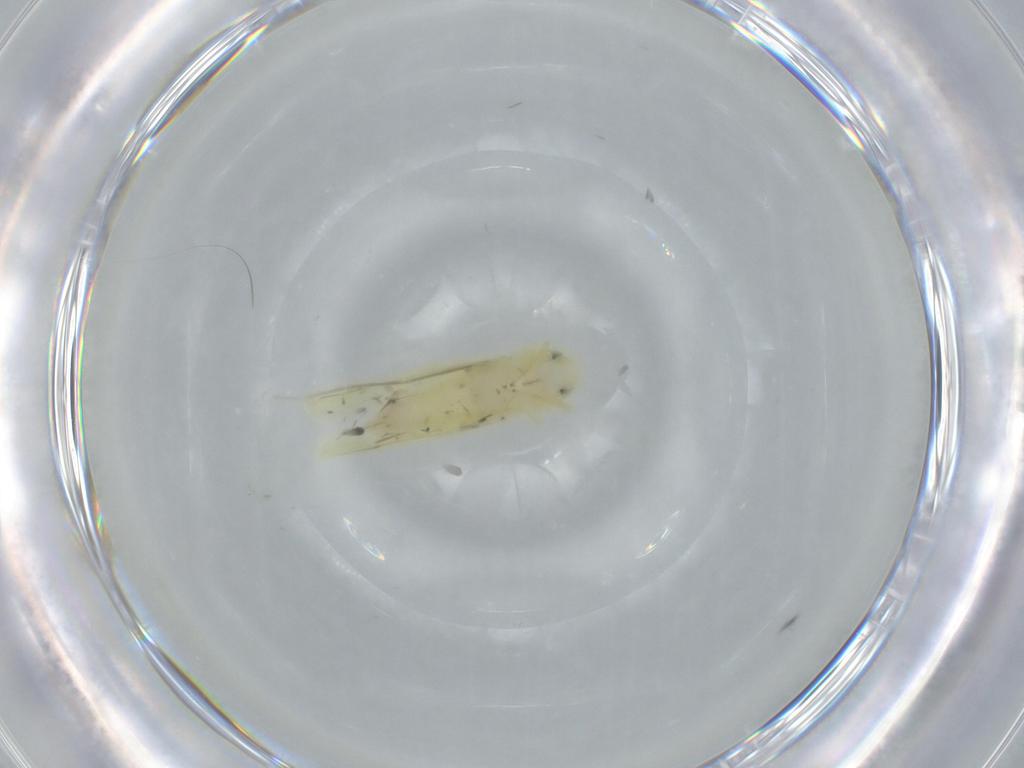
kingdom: Animalia
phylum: Arthropoda
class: Insecta
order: Hemiptera
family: Cicadellidae
